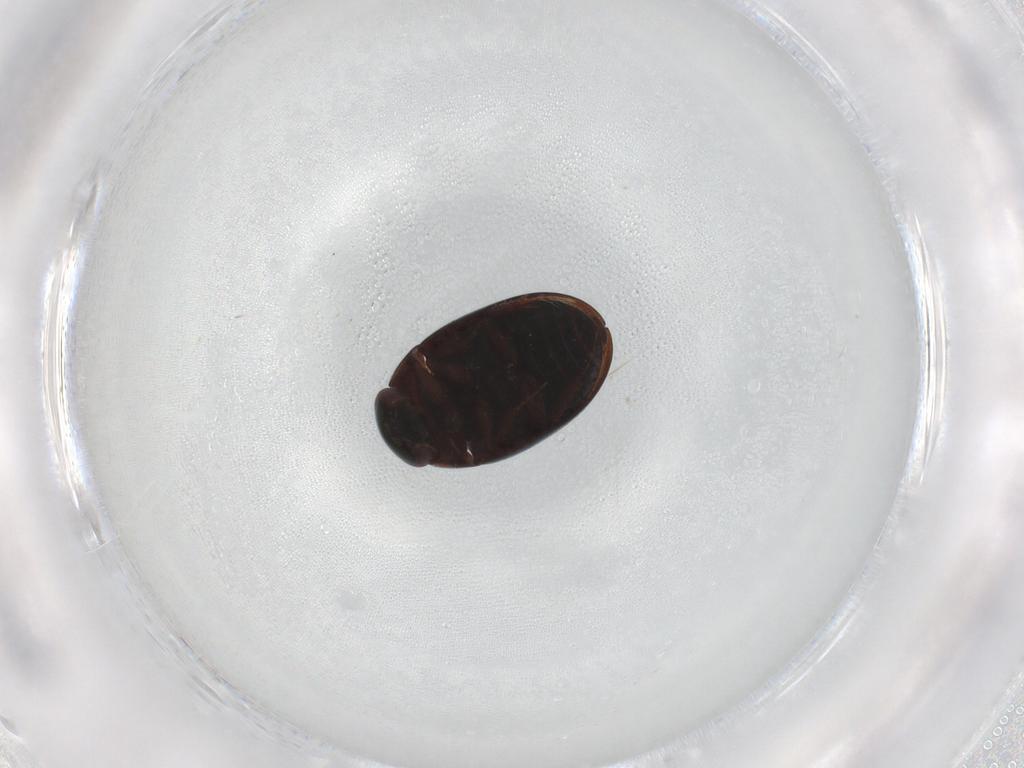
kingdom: Animalia
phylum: Arthropoda
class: Insecta
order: Coleoptera
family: Hydrophilidae
